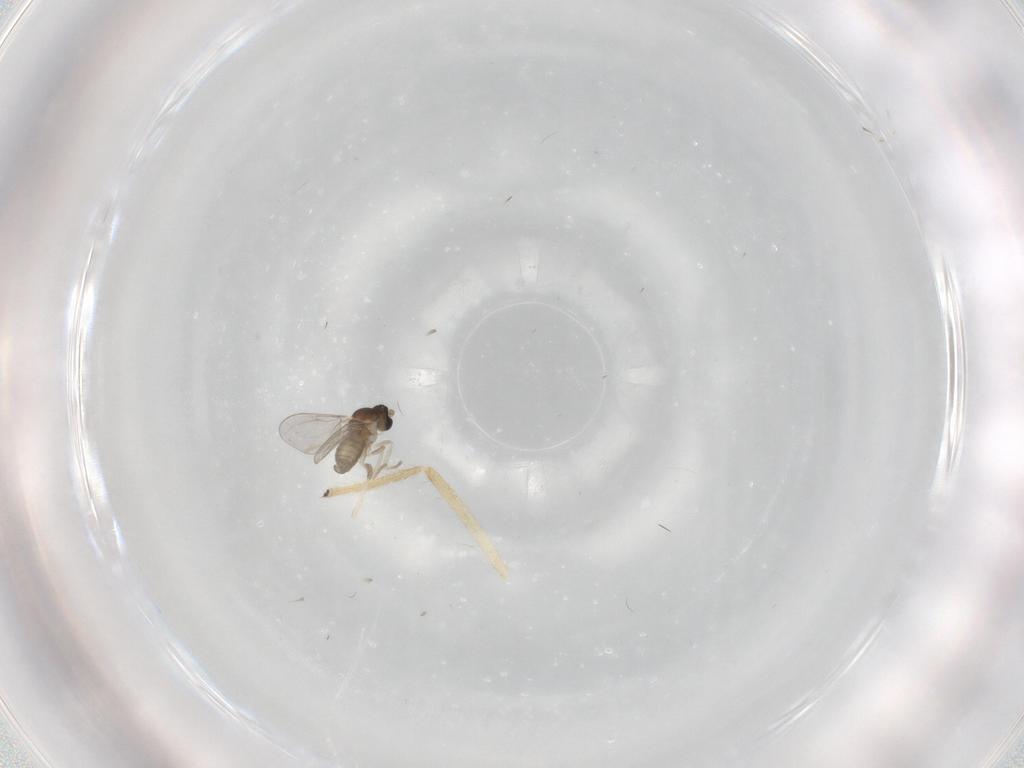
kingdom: Animalia
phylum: Arthropoda
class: Insecta
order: Diptera
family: Chironomidae
